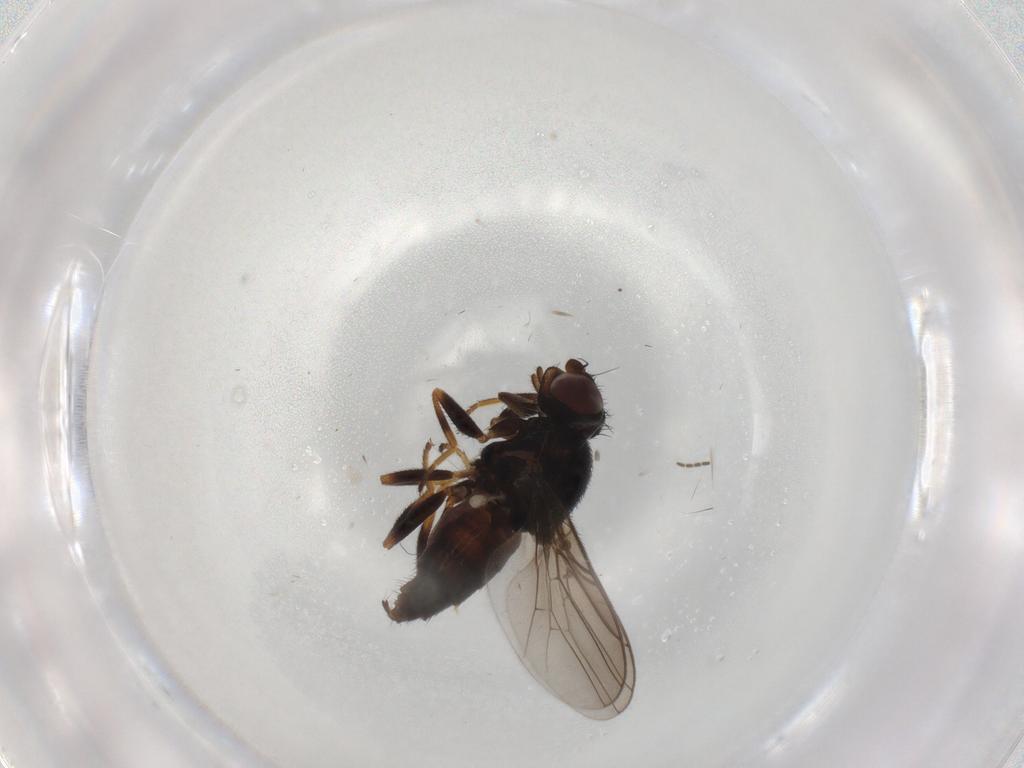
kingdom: Animalia
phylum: Arthropoda
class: Insecta
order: Diptera
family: Chloropidae
